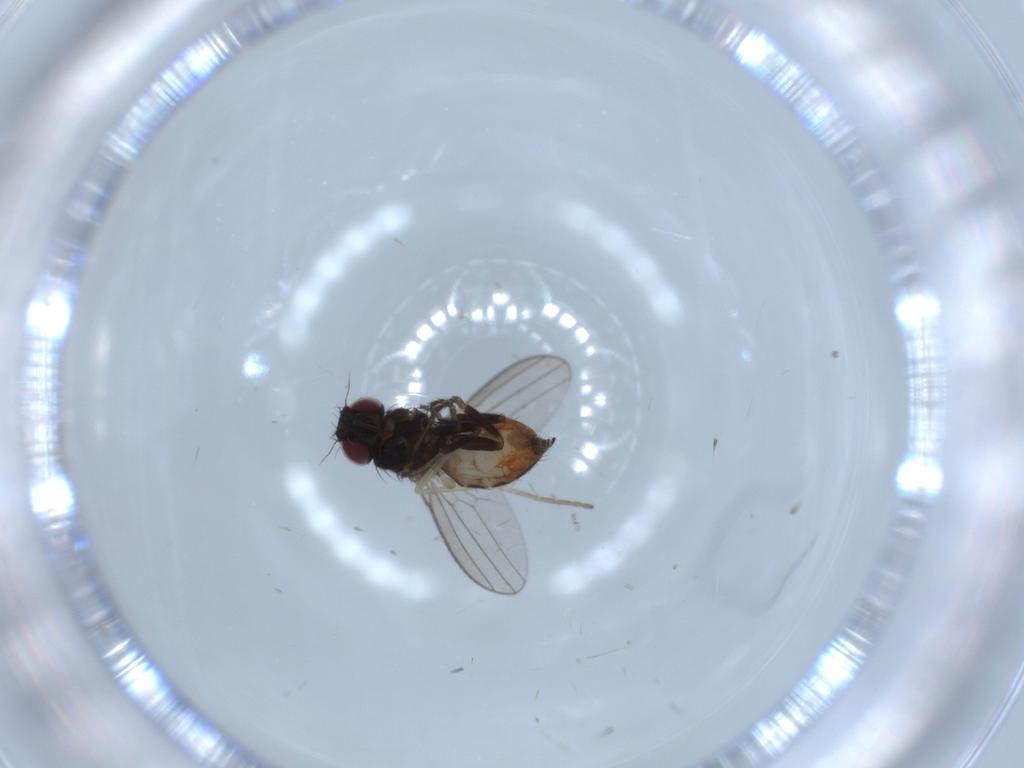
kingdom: Animalia
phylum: Arthropoda
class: Insecta
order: Diptera
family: Milichiidae
